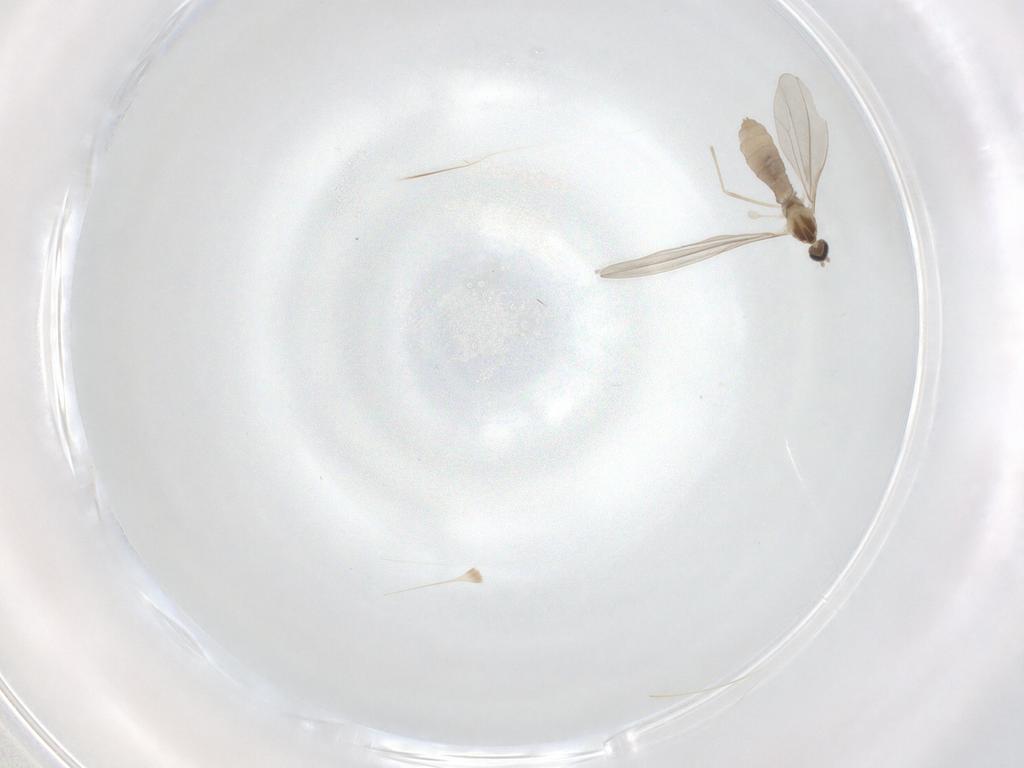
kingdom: Animalia
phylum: Arthropoda
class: Insecta
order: Diptera
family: Cecidomyiidae
